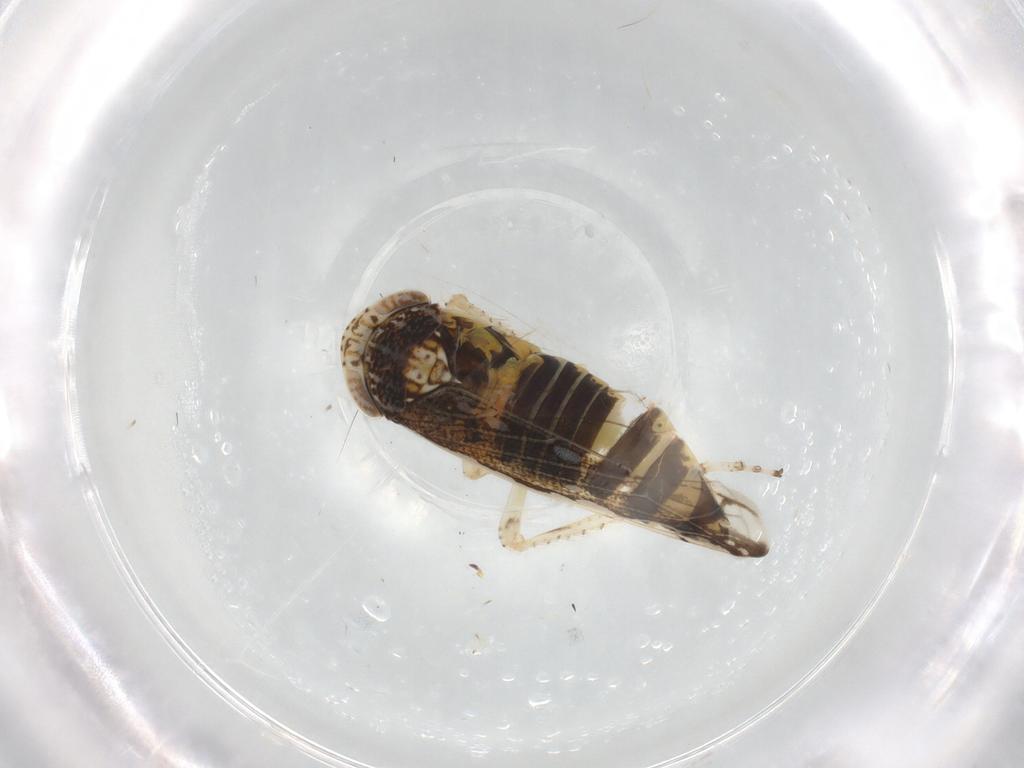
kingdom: Animalia
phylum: Arthropoda
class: Insecta
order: Hemiptera
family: Cicadellidae
